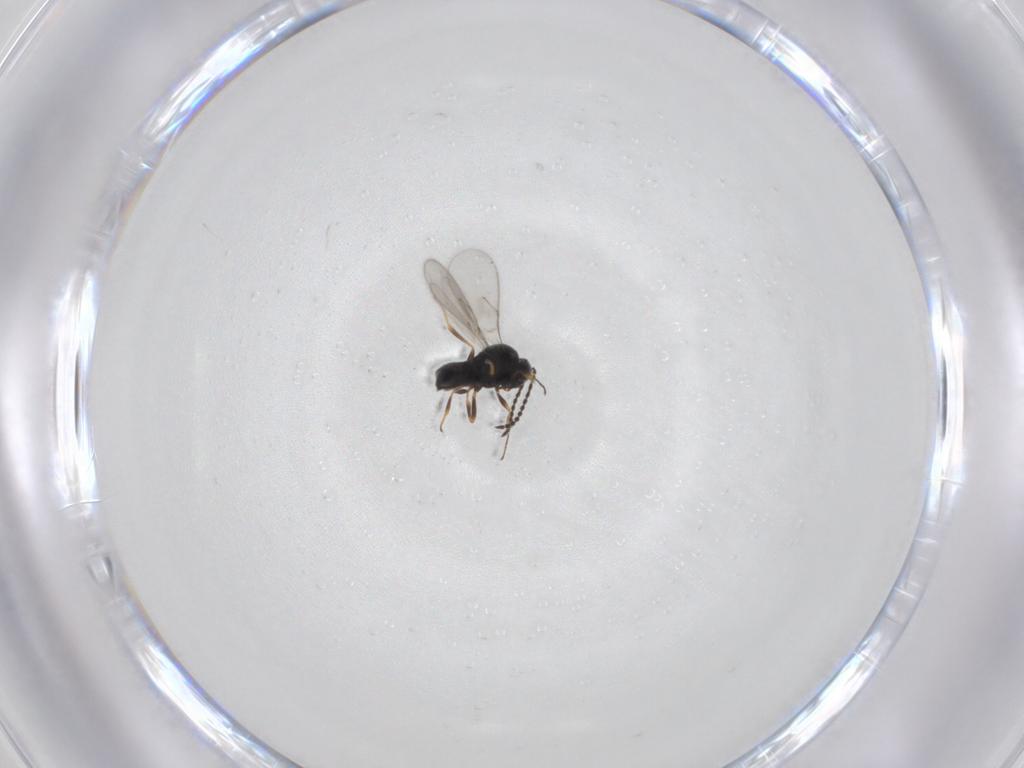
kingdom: Animalia
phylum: Arthropoda
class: Insecta
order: Hymenoptera
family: Scelionidae
